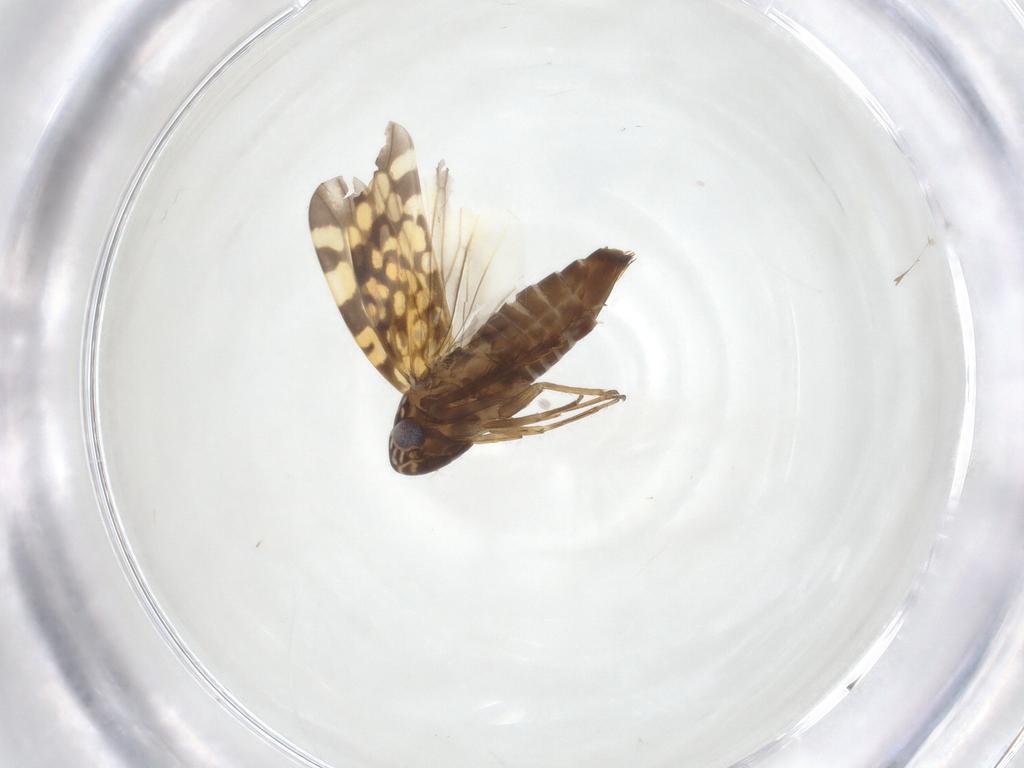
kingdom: Animalia
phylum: Arthropoda
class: Insecta
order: Hemiptera
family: Cicadellidae
